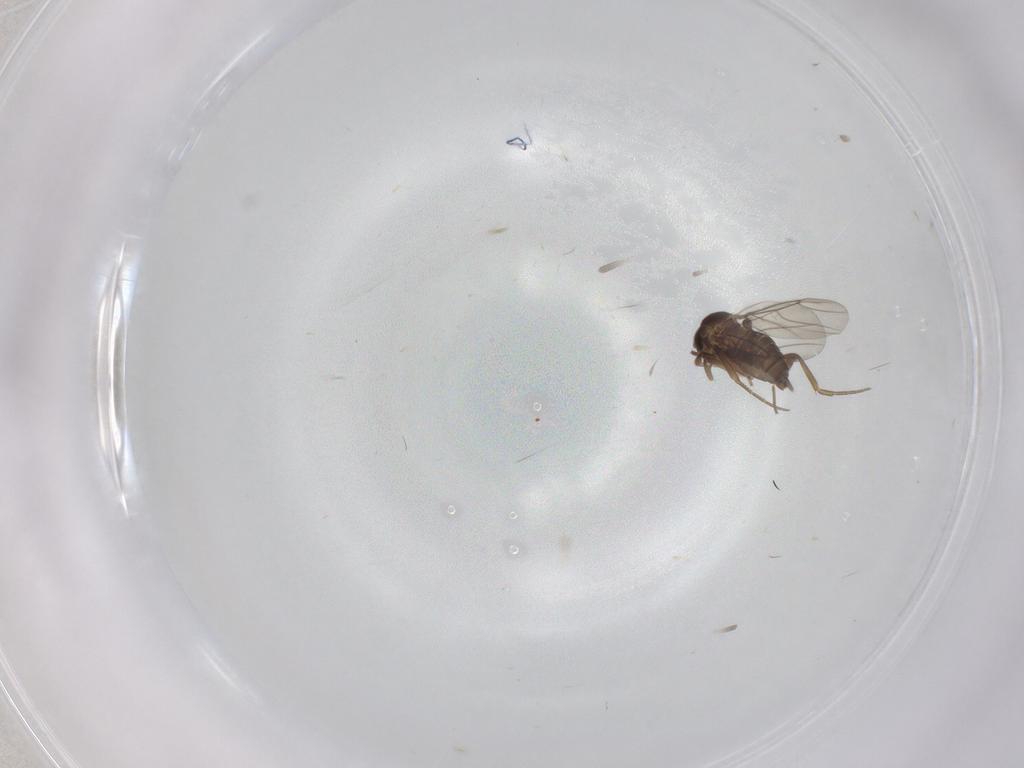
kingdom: Animalia
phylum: Arthropoda
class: Insecta
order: Diptera
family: Phoridae
